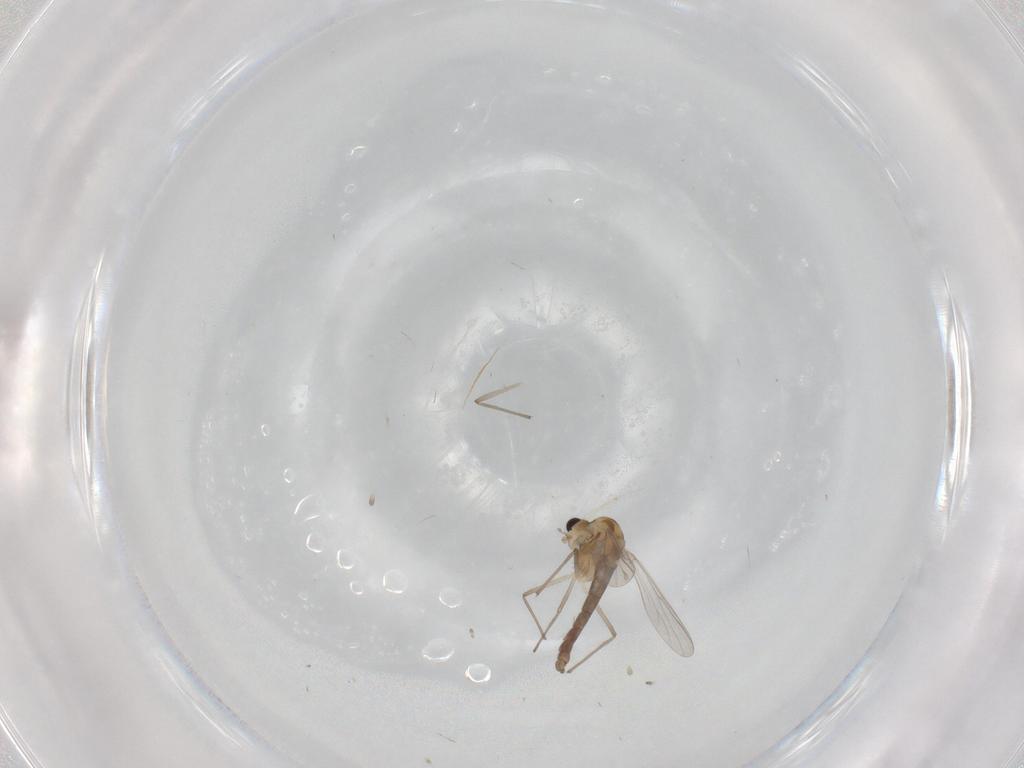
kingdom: Animalia
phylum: Arthropoda
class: Insecta
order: Diptera
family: Chironomidae
